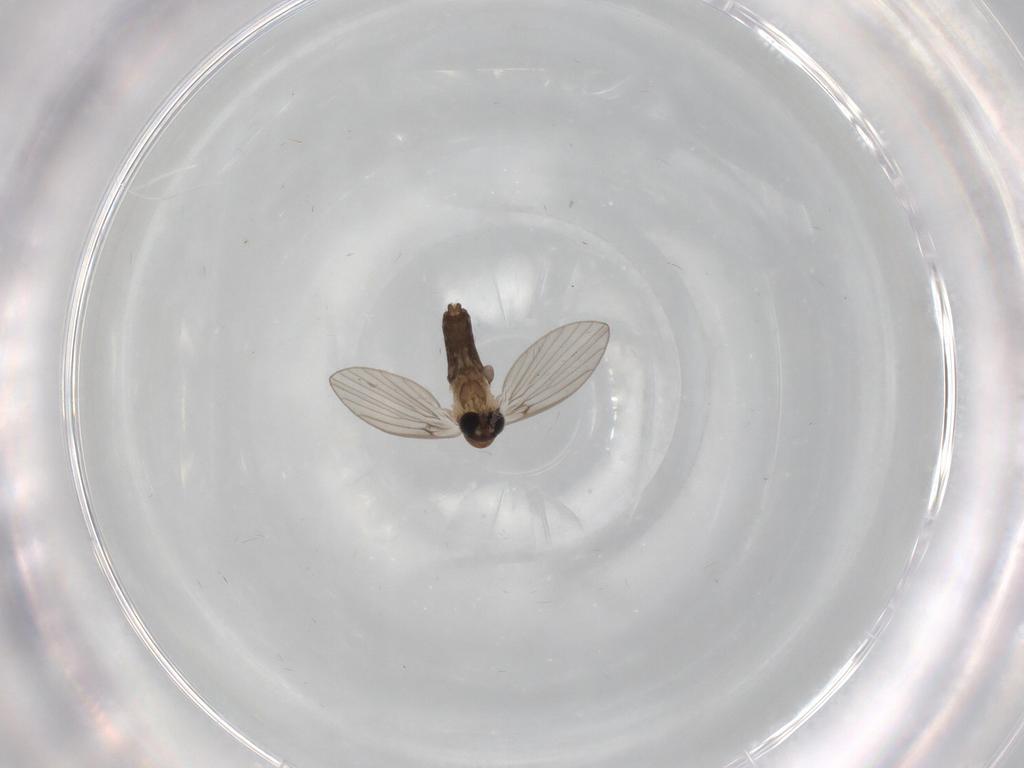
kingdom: Animalia
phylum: Arthropoda
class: Insecta
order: Diptera
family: Psychodidae
